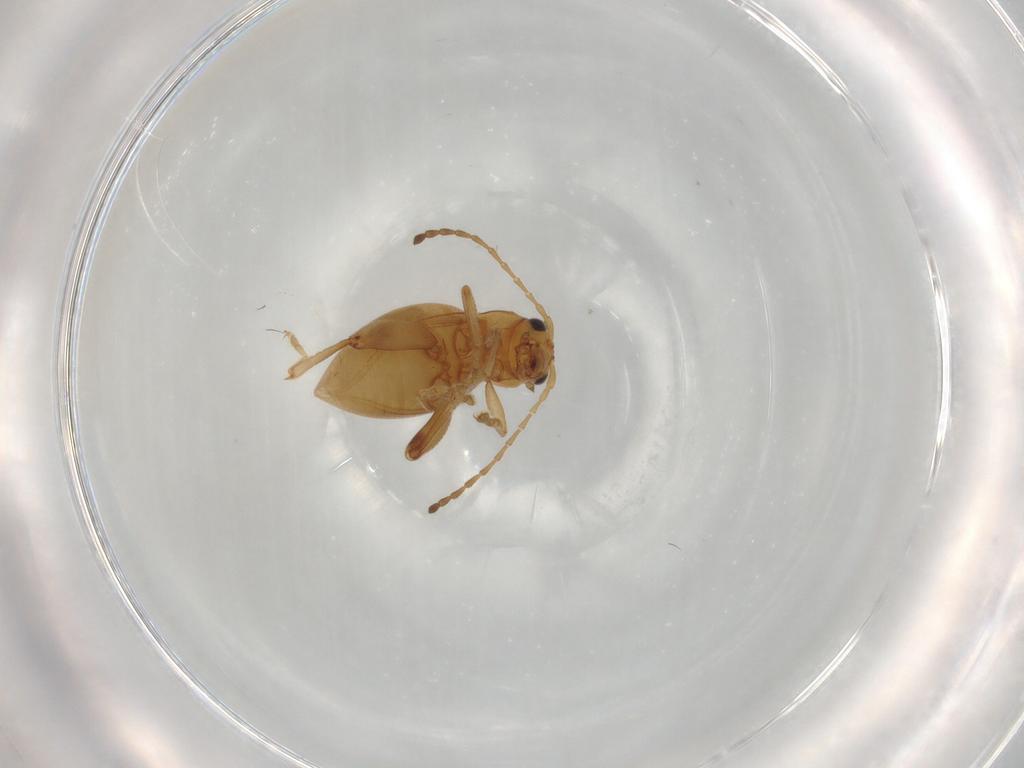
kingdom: Animalia
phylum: Arthropoda
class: Insecta
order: Coleoptera
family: Chrysomelidae
